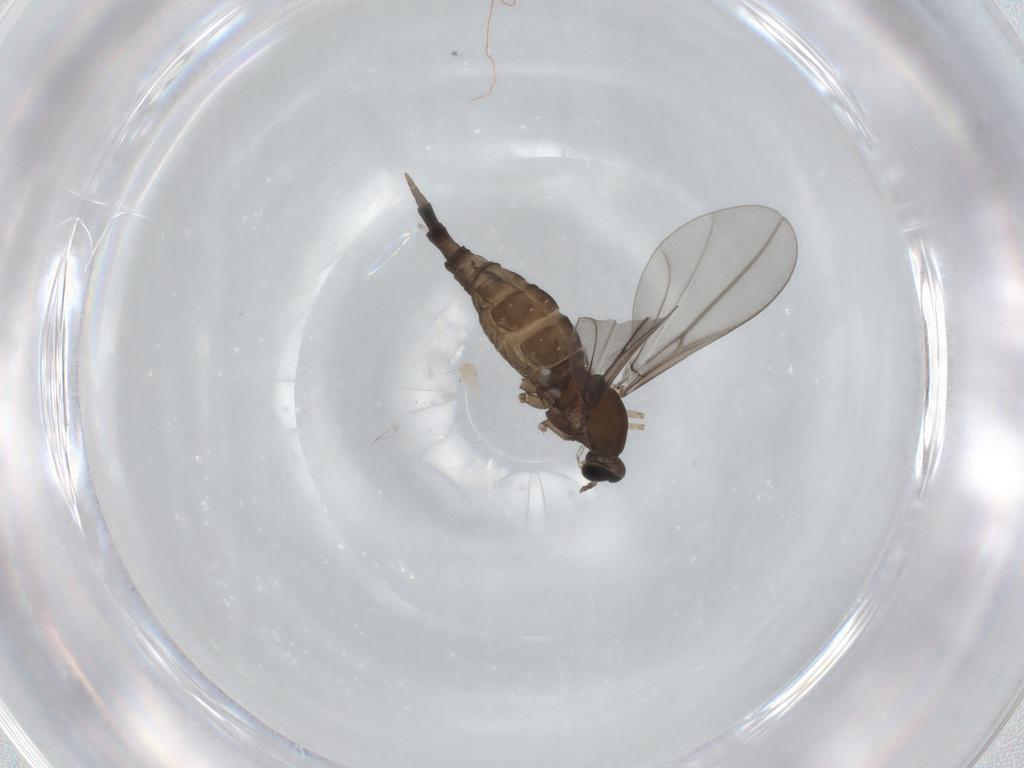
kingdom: Animalia
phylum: Arthropoda
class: Insecta
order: Diptera
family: Cecidomyiidae
